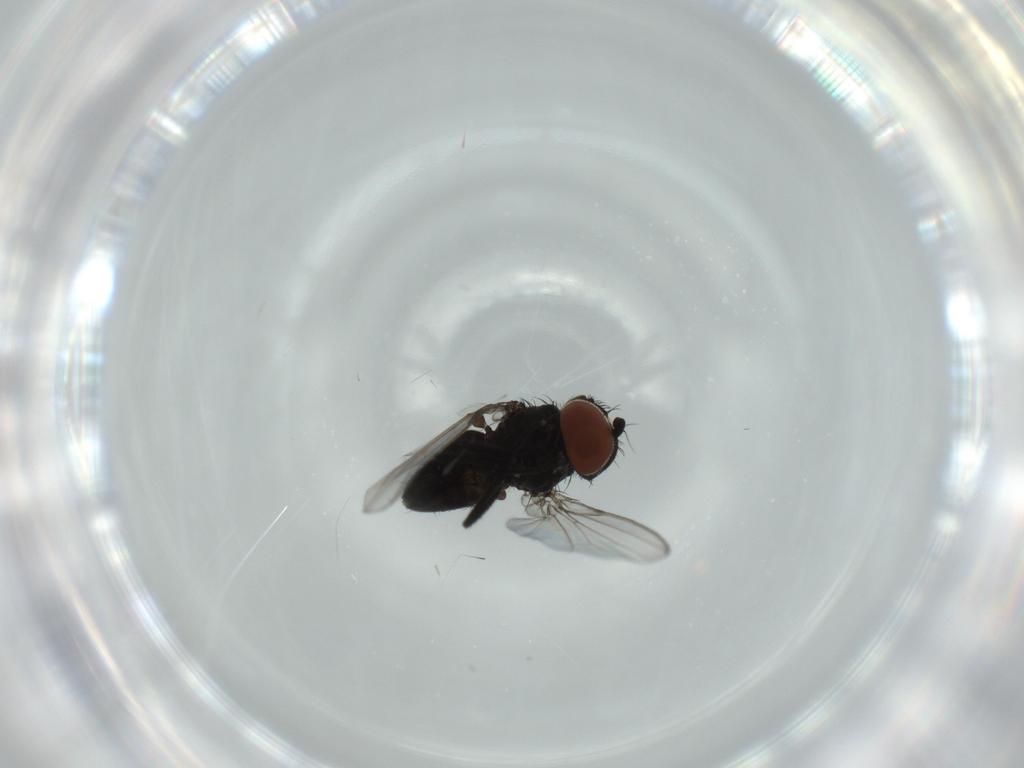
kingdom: Animalia
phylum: Arthropoda
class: Insecta
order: Diptera
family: Milichiidae
